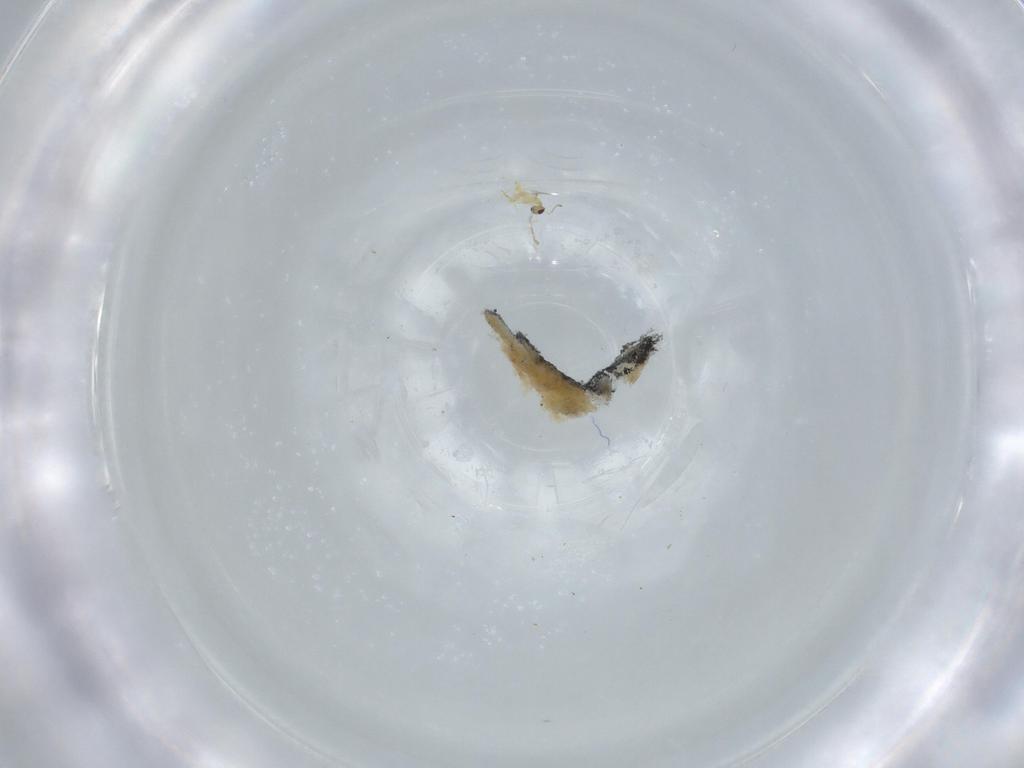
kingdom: Animalia
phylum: Arthropoda
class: Insecta
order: Hymenoptera
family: Mymaridae
